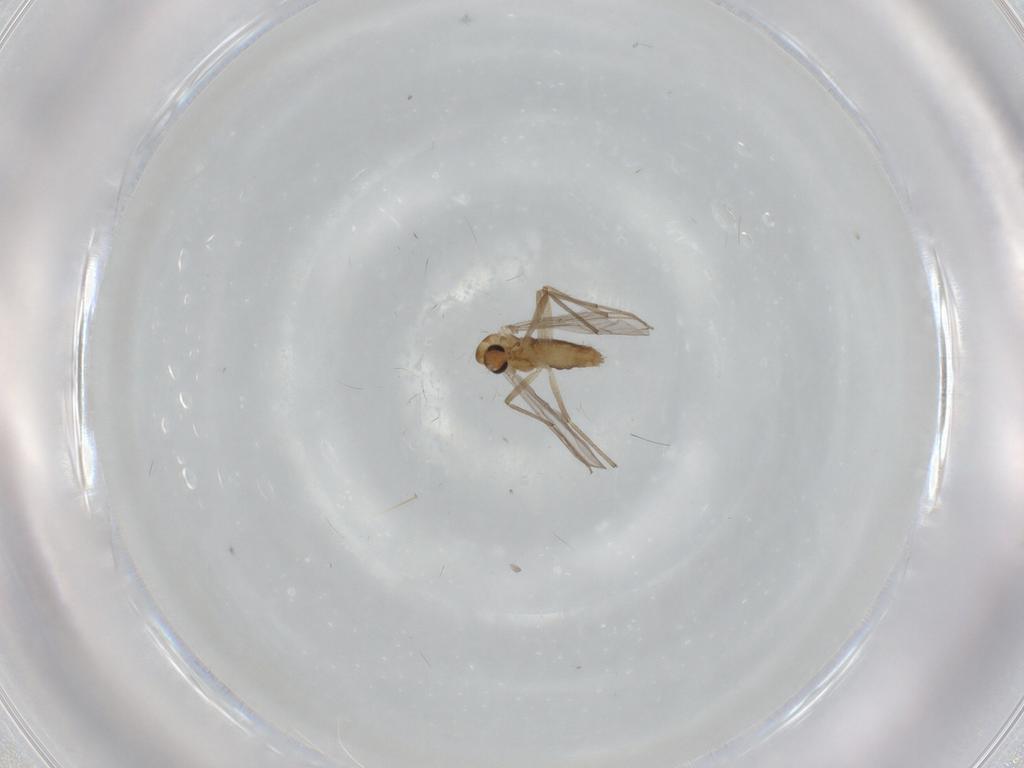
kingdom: Animalia
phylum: Arthropoda
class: Insecta
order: Diptera
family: Chironomidae
